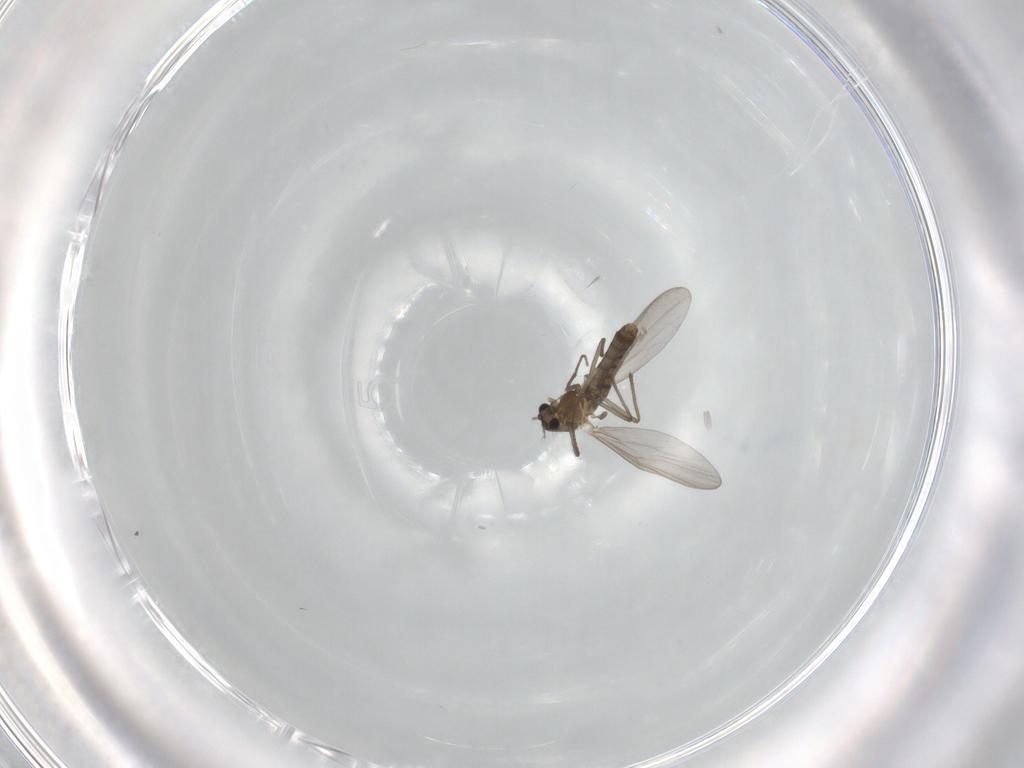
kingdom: Animalia
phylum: Arthropoda
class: Insecta
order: Diptera
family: Chironomidae
